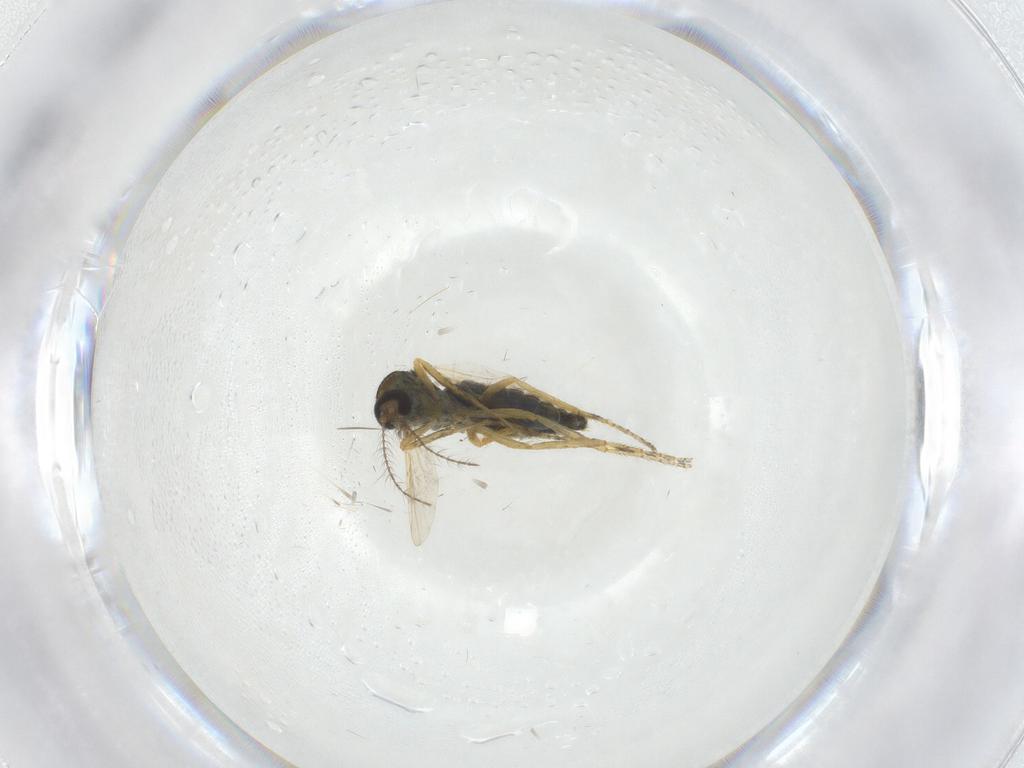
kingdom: Animalia
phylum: Arthropoda
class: Insecta
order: Diptera
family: Ceratopogonidae
